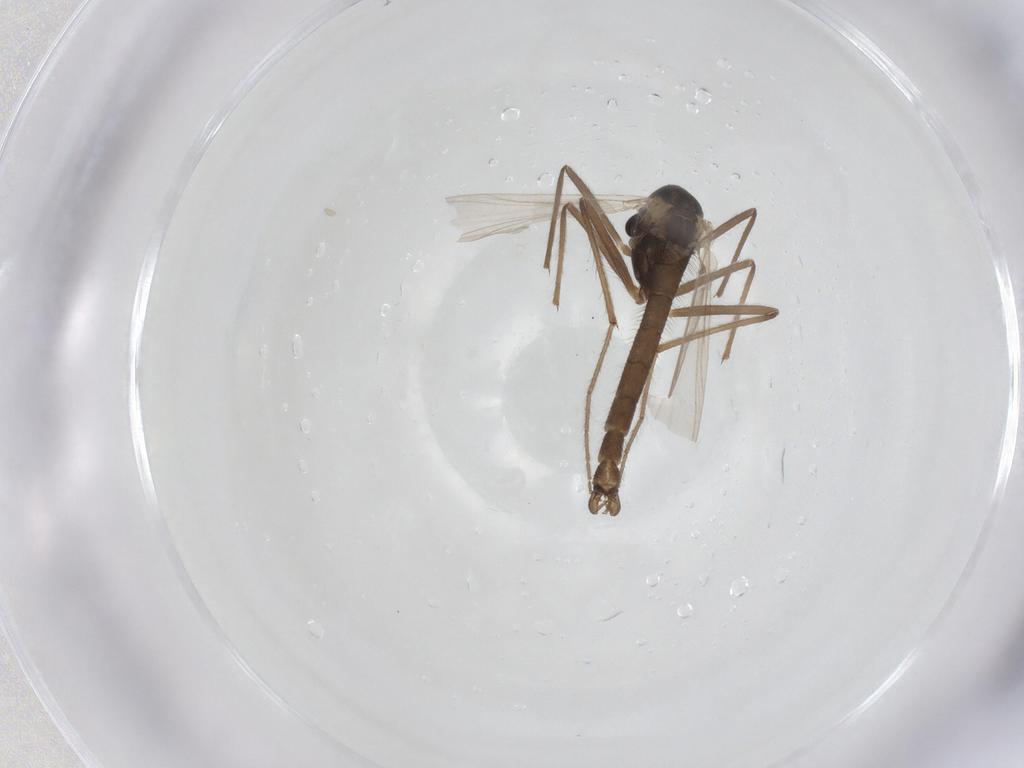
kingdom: Animalia
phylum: Arthropoda
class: Insecta
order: Diptera
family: Chironomidae
